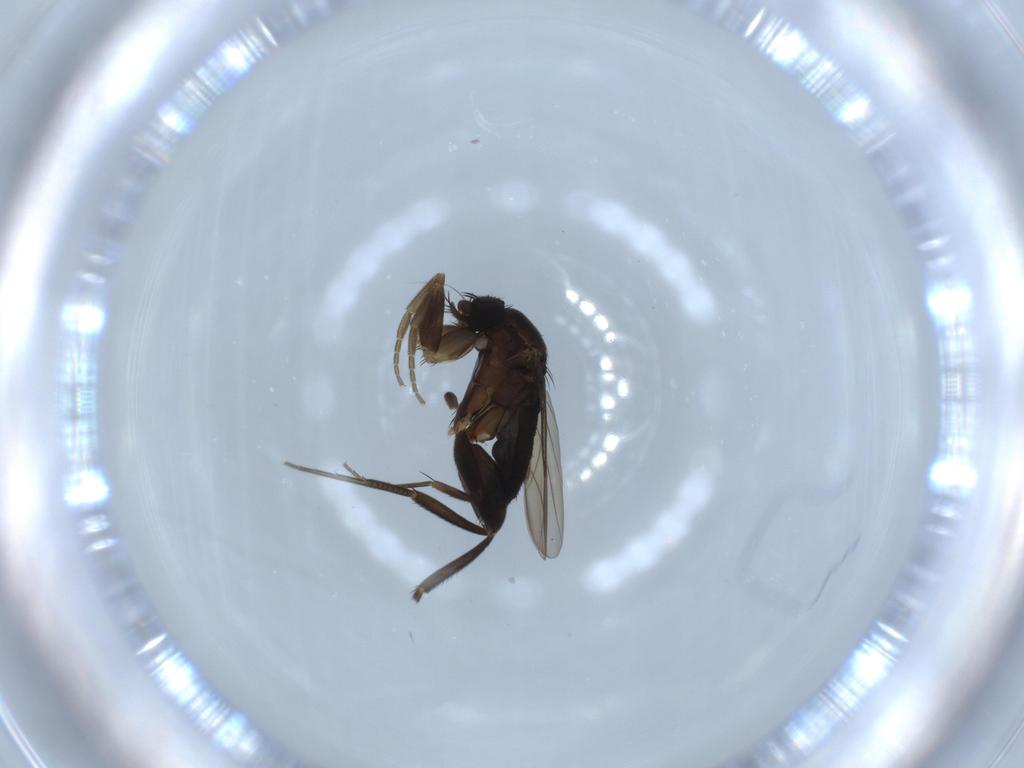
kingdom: Animalia
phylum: Arthropoda
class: Insecta
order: Diptera
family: Phoridae
